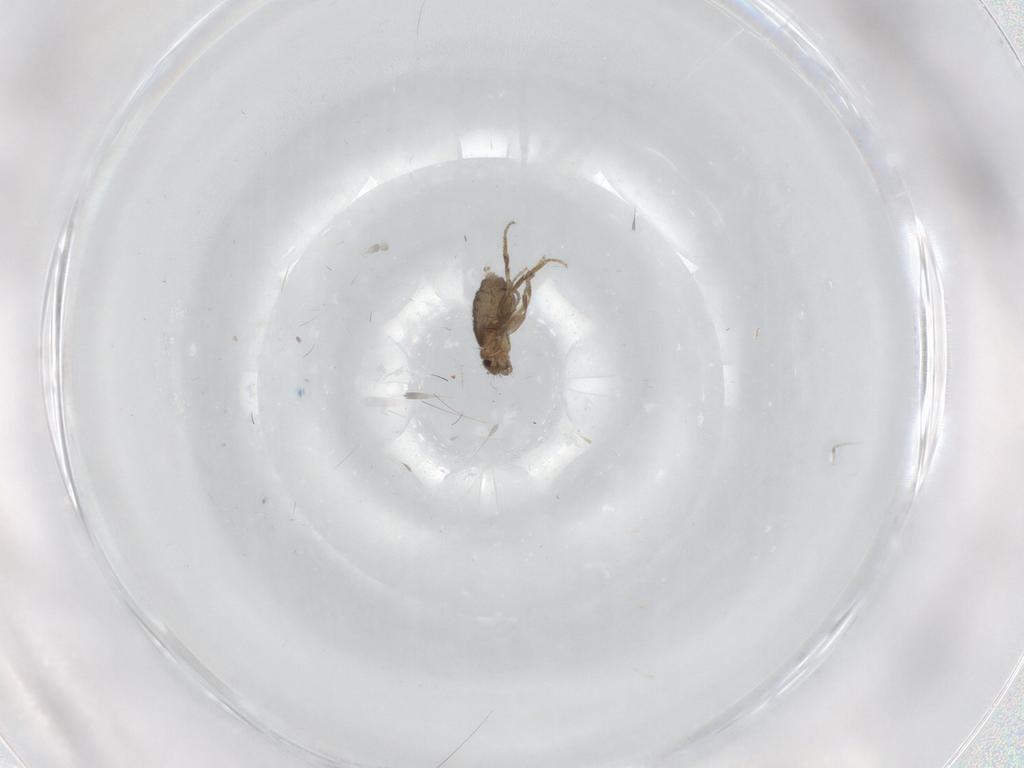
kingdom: Animalia
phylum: Arthropoda
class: Insecta
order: Diptera
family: Phoridae
